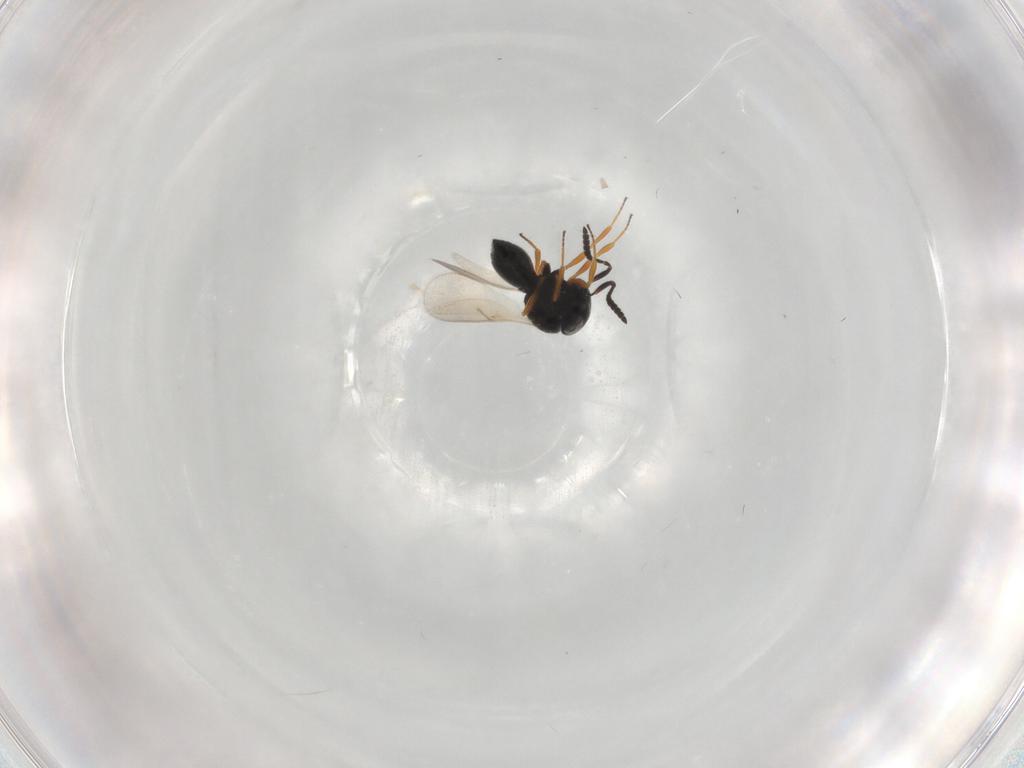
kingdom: Animalia
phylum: Arthropoda
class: Insecta
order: Hymenoptera
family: Scelionidae
